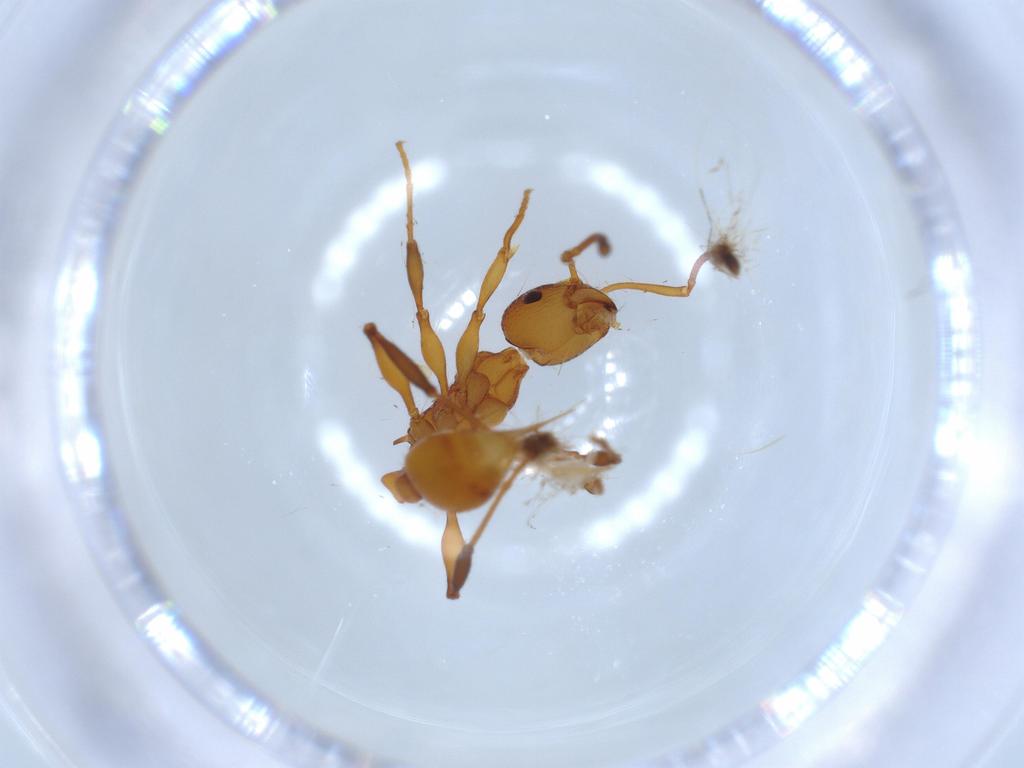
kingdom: Animalia
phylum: Arthropoda
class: Insecta
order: Hymenoptera
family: Formicidae
